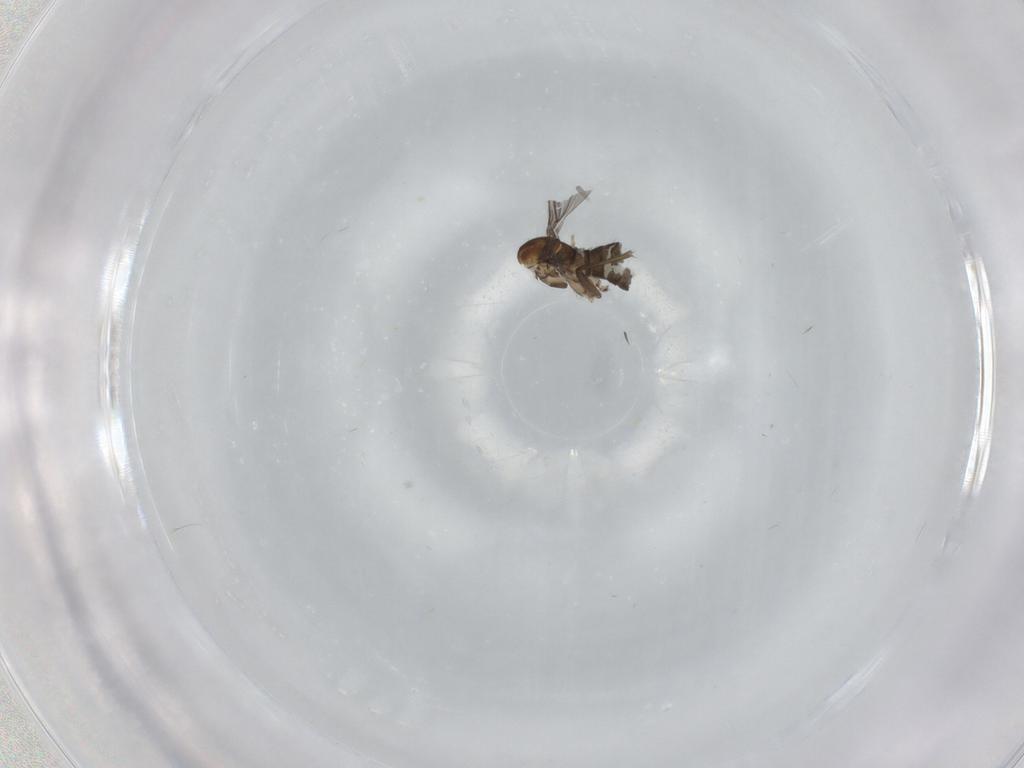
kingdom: Animalia
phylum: Arthropoda
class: Insecta
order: Diptera
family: Sciaridae
